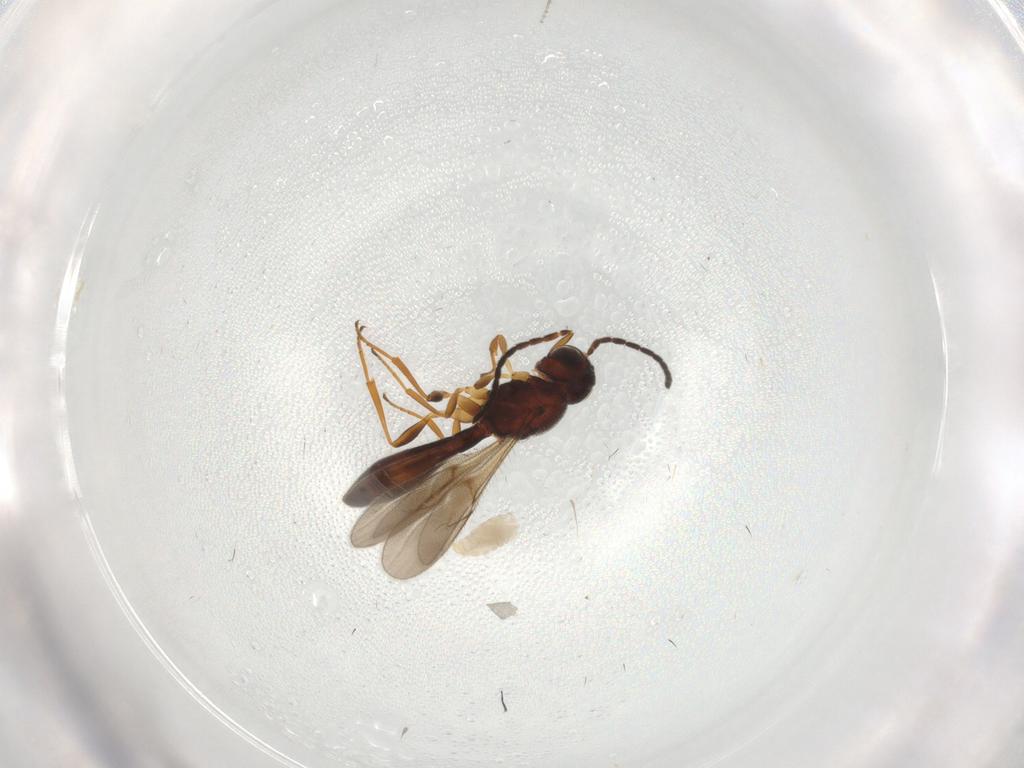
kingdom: Animalia
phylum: Arthropoda
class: Insecta
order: Hymenoptera
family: Scelionidae
